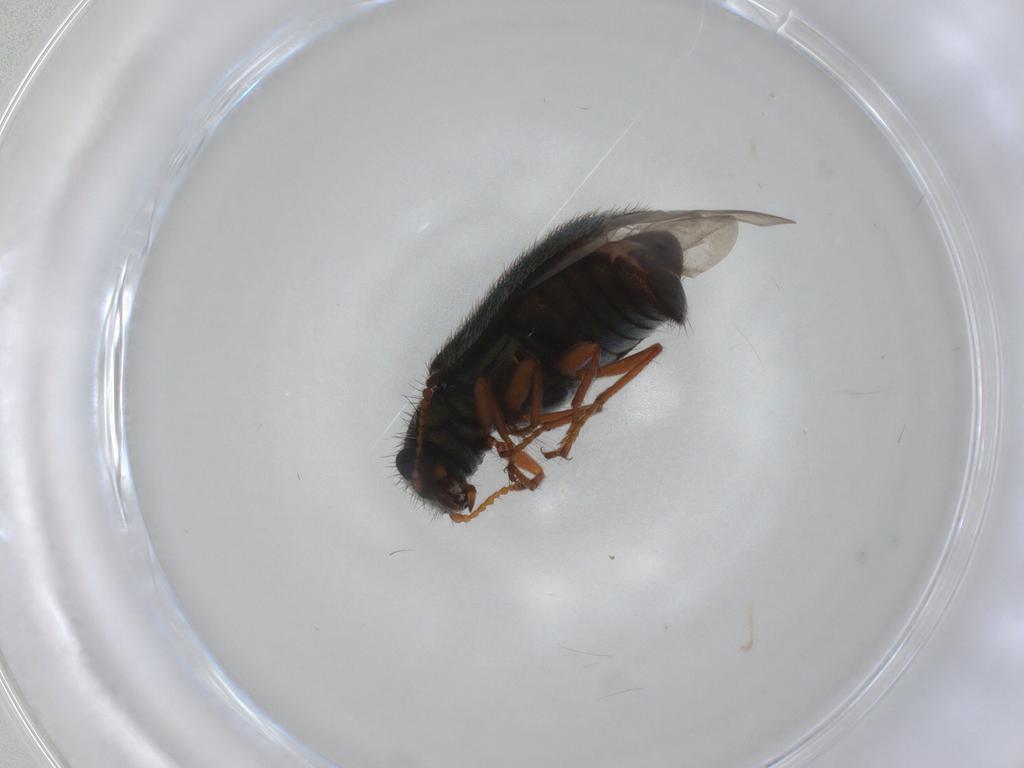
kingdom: Animalia
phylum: Arthropoda
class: Insecta
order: Coleoptera
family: Melyridae
